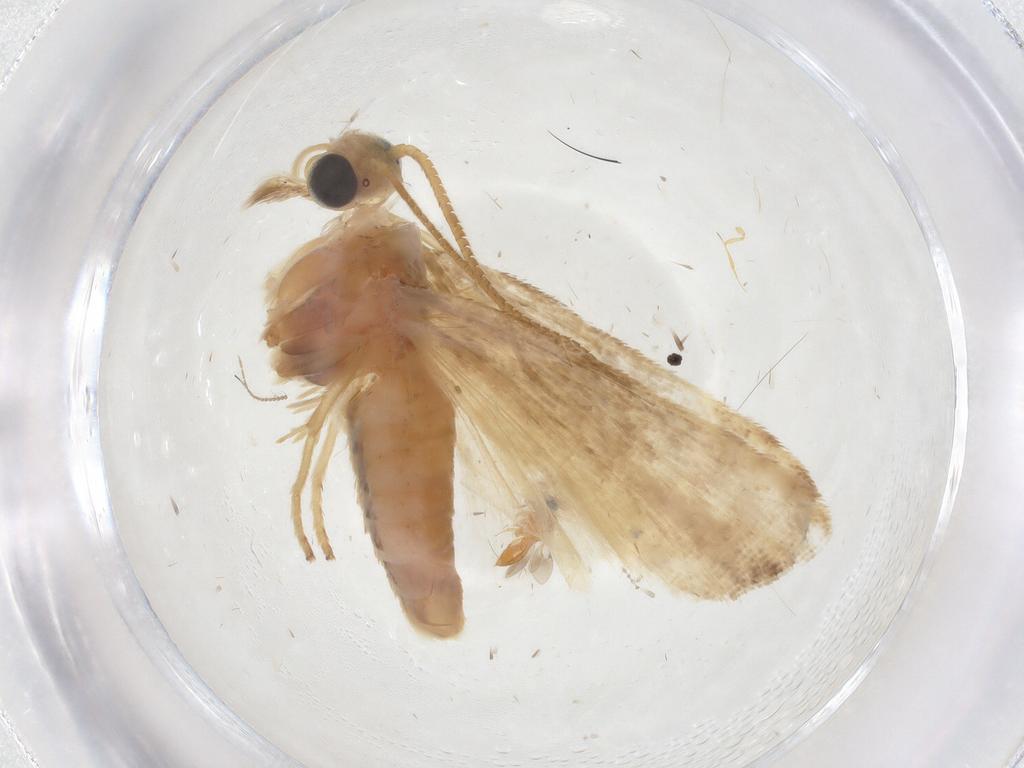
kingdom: Animalia
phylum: Arthropoda
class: Insecta
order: Lepidoptera
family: Pyralidae
